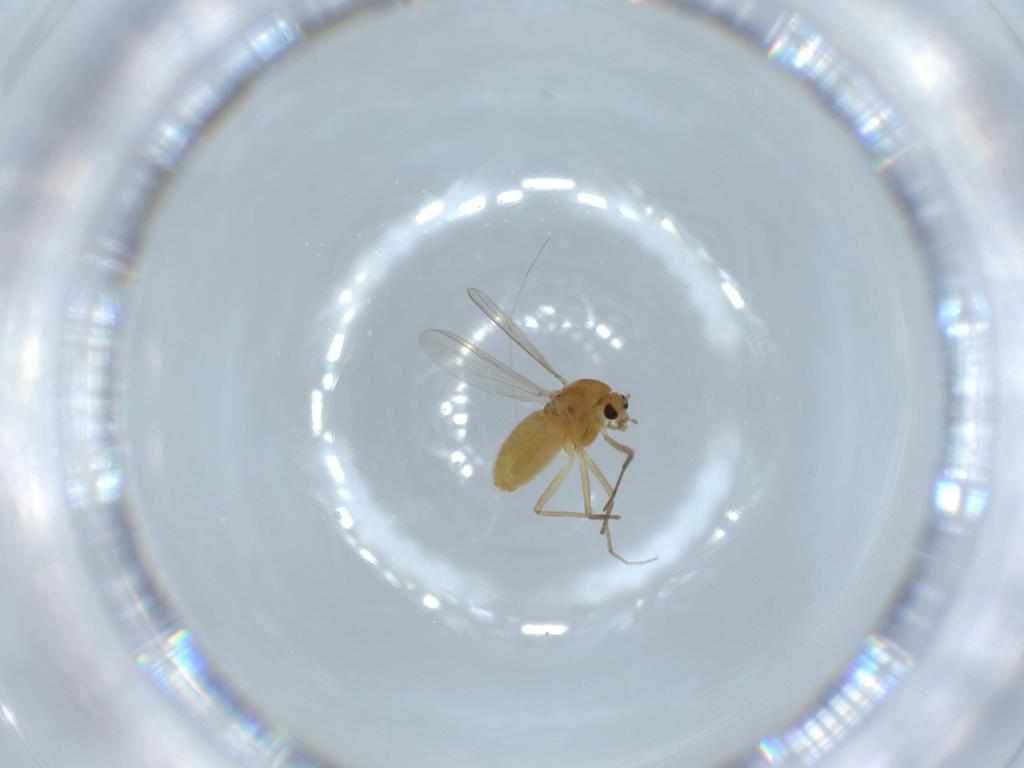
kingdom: Animalia
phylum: Arthropoda
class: Insecta
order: Diptera
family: Chironomidae
